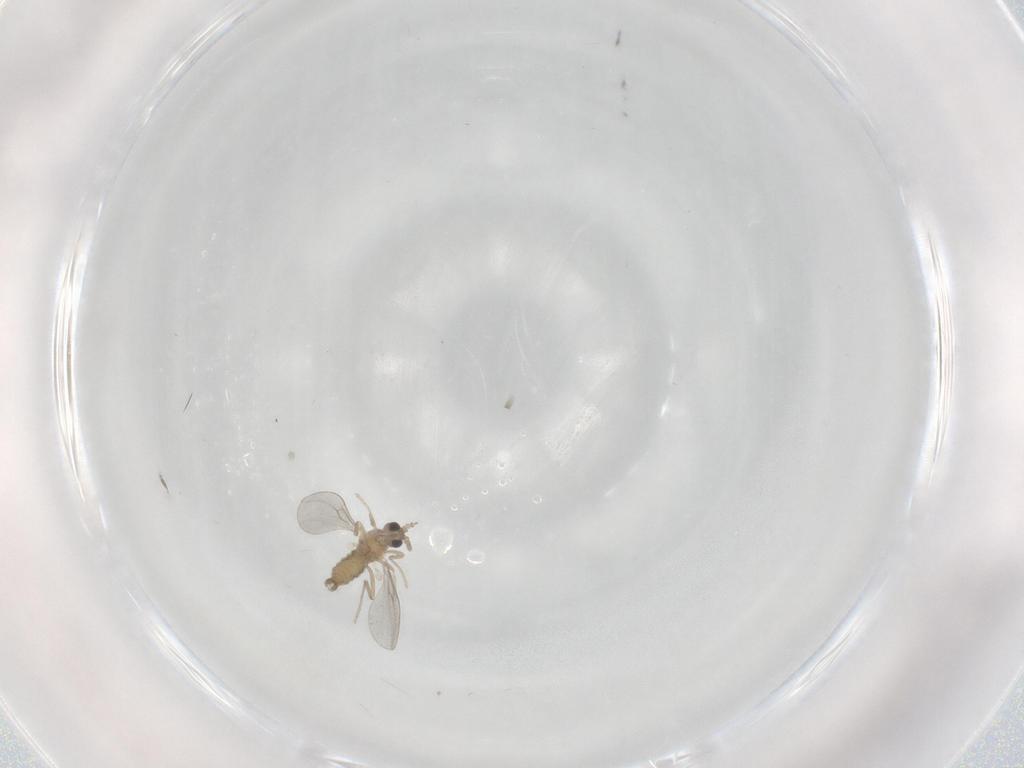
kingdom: Animalia
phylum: Arthropoda
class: Insecta
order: Diptera
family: Cecidomyiidae
